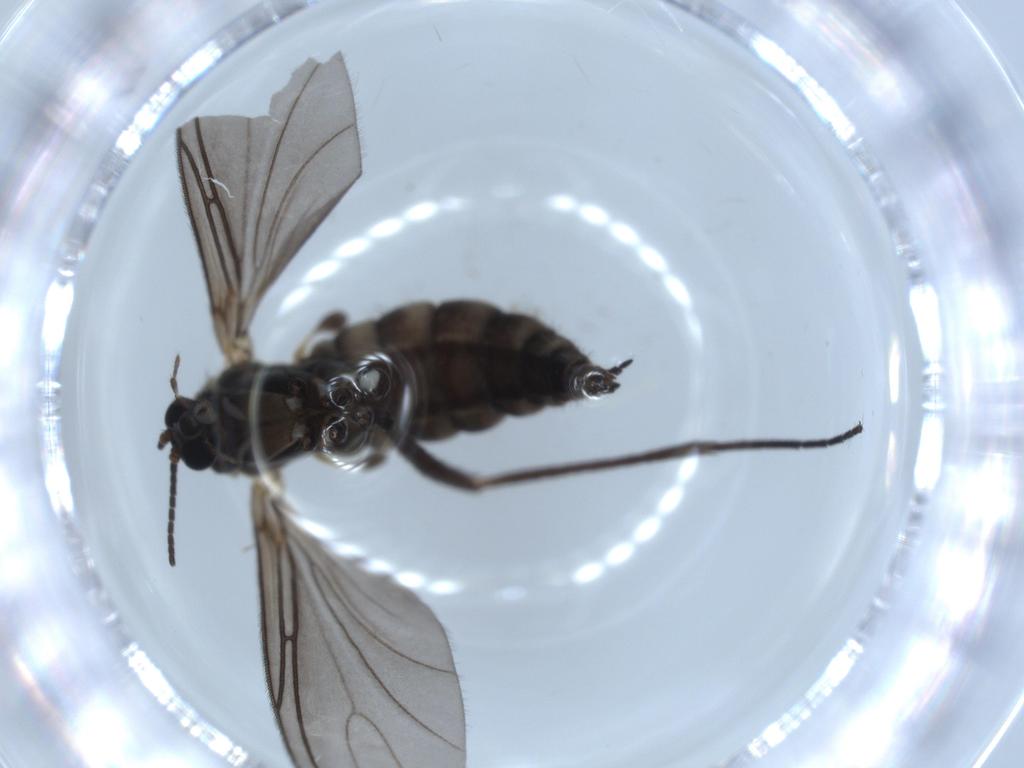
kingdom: Animalia
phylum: Arthropoda
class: Insecta
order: Diptera
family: Sciaridae
